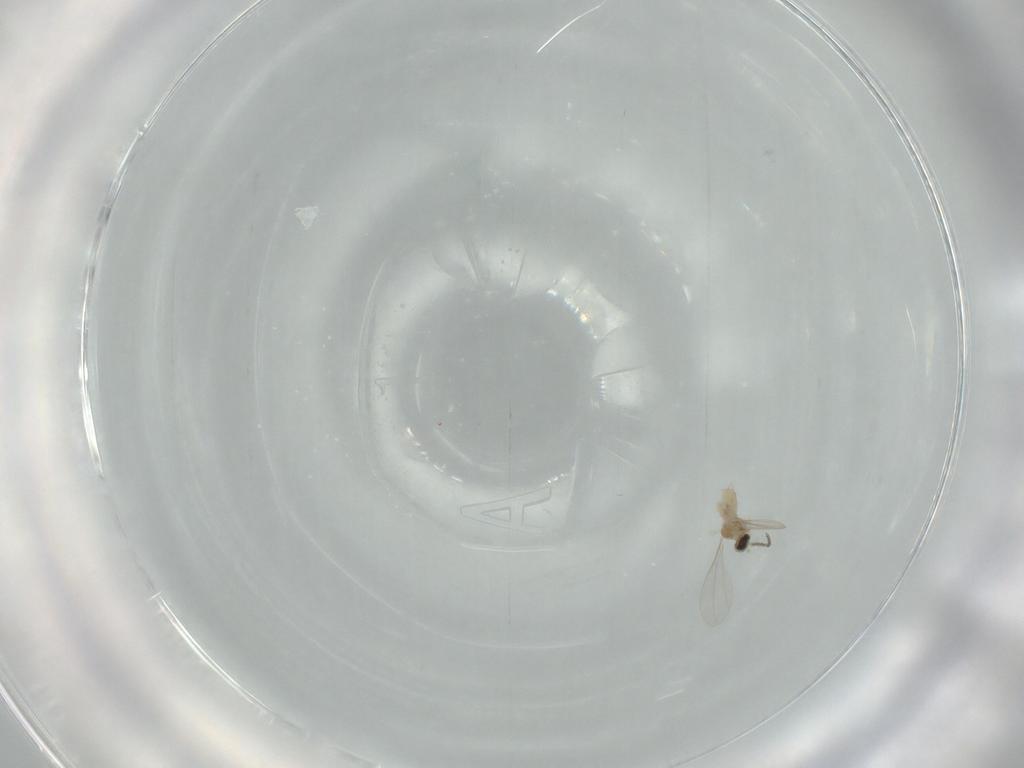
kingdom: Animalia
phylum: Arthropoda
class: Insecta
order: Diptera
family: Cecidomyiidae
